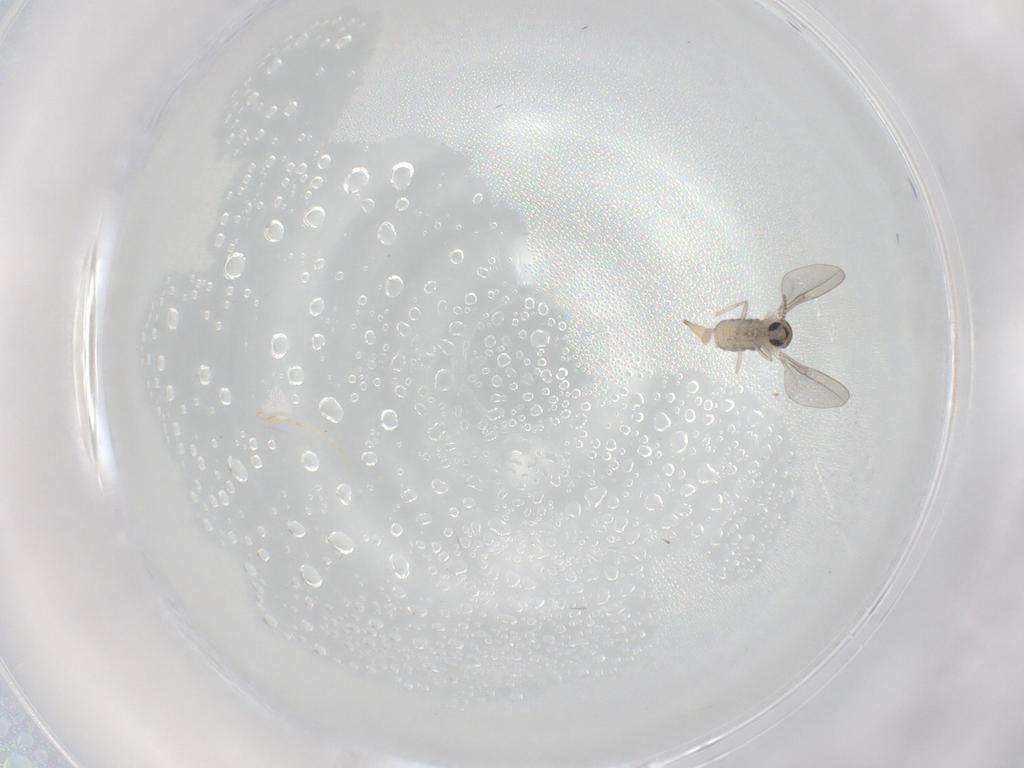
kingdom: Animalia
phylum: Arthropoda
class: Insecta
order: Diptera
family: Cecidomyiidae
